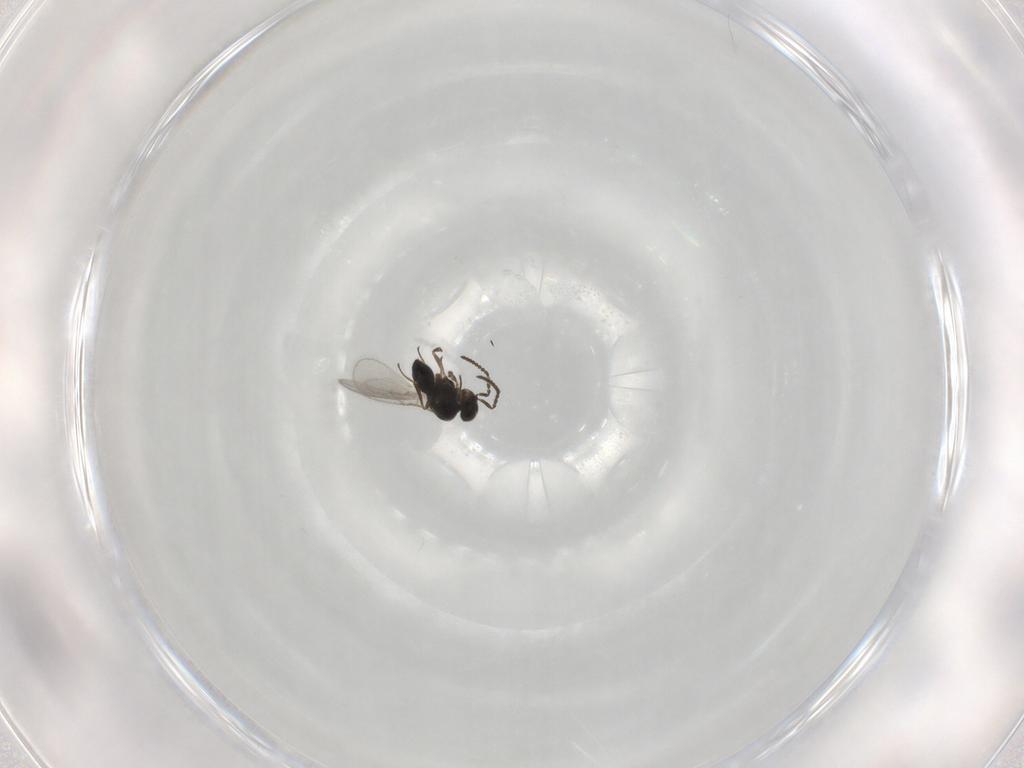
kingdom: Animalia
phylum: Arthropoda
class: Insecta
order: Hymenoptera
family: Scelionidae
